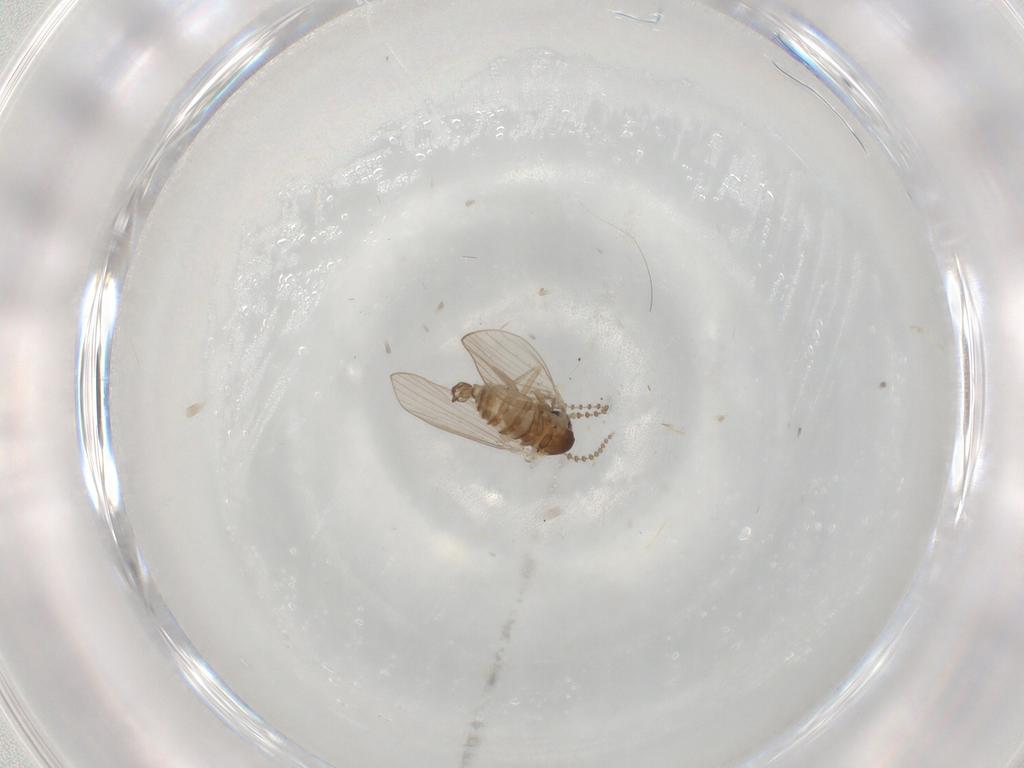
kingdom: Animalia
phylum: Arthropoda
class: Insecta
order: Diptera
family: Psychodidae
